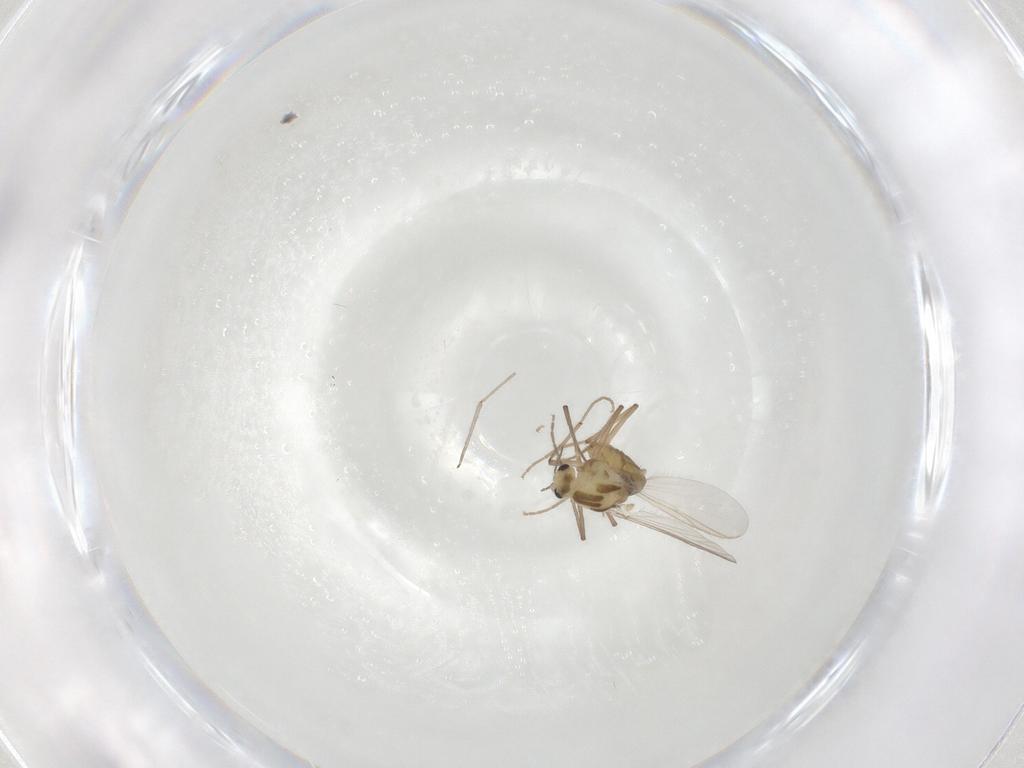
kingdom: Animalia
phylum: Arthropoda
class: Insecta
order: Diptera
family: Chironomidae
